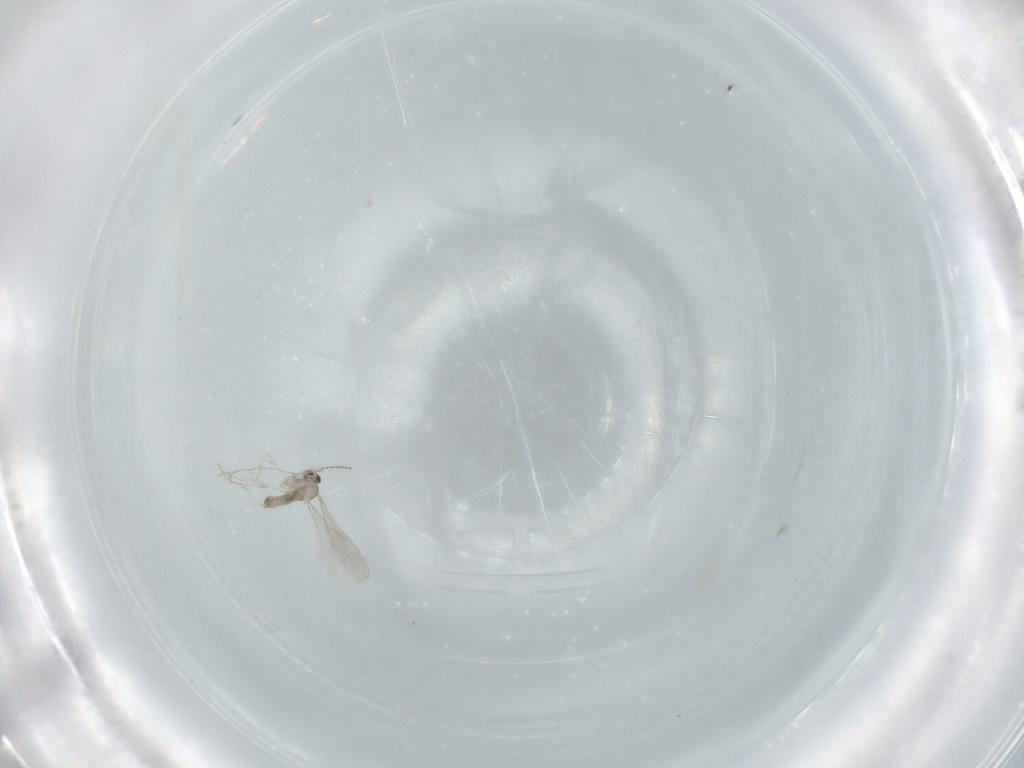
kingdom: Animalia
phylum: Arthropoda
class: Insecta
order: Diptera
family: Cecidomyiidae
